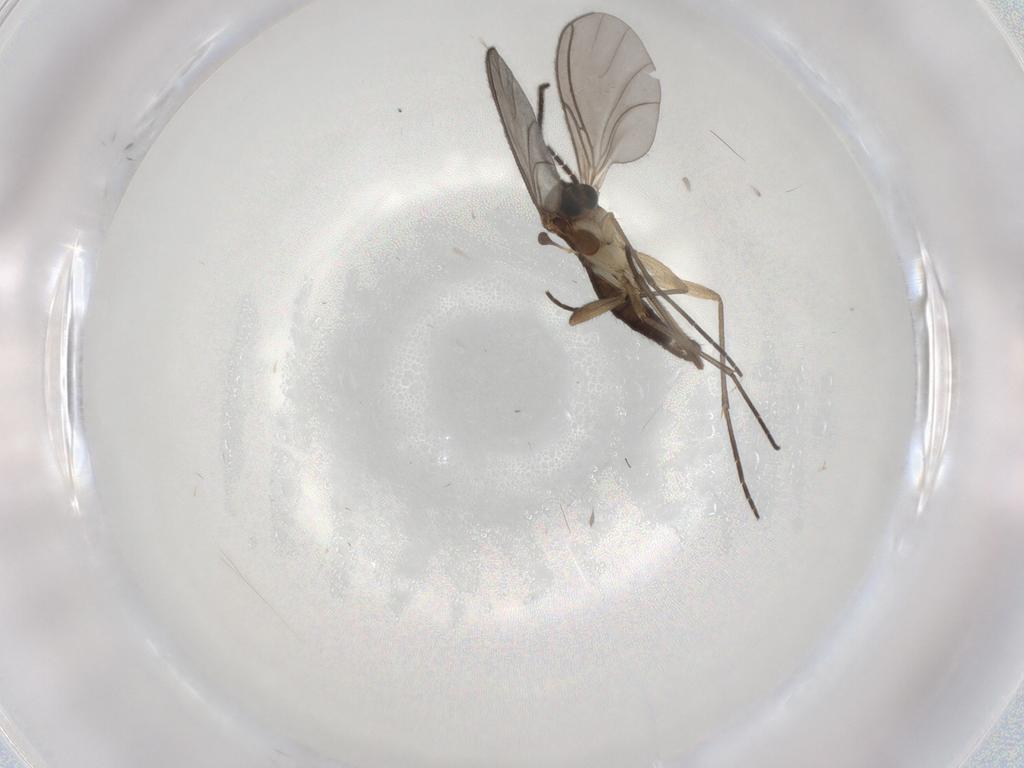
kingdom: Animalia
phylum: Arthropoda
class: Insecta
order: Diptera
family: Sciaridae
